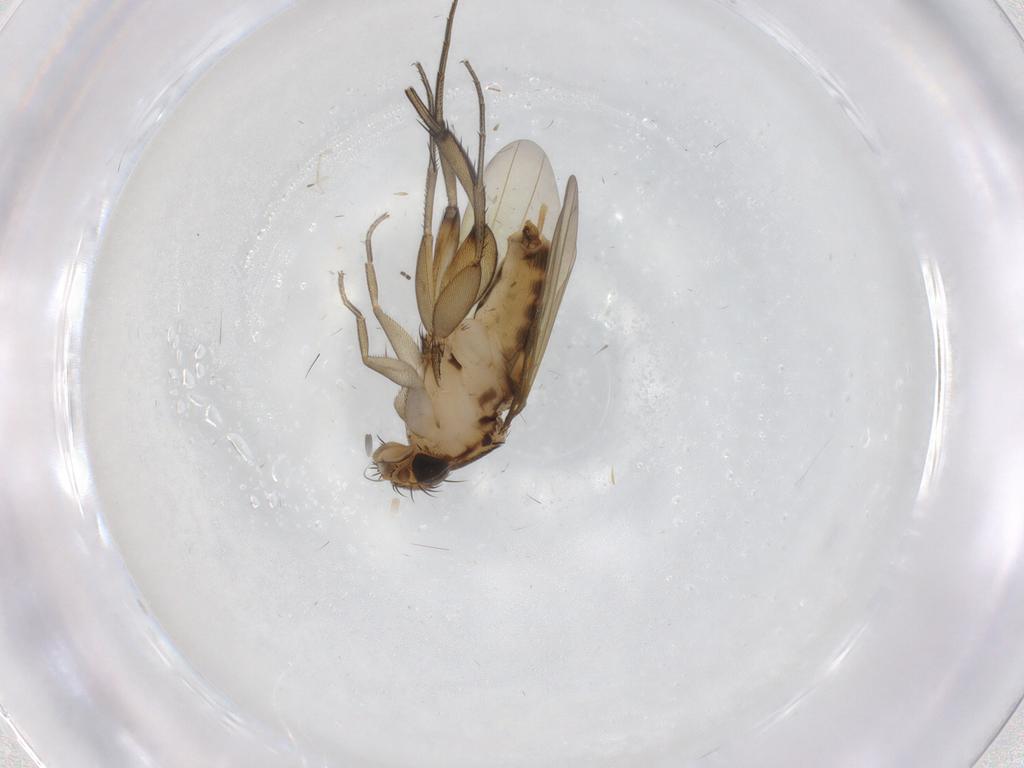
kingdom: Animalia
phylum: Arthropoda
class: Insecta
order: Diptera
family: Phoridae
